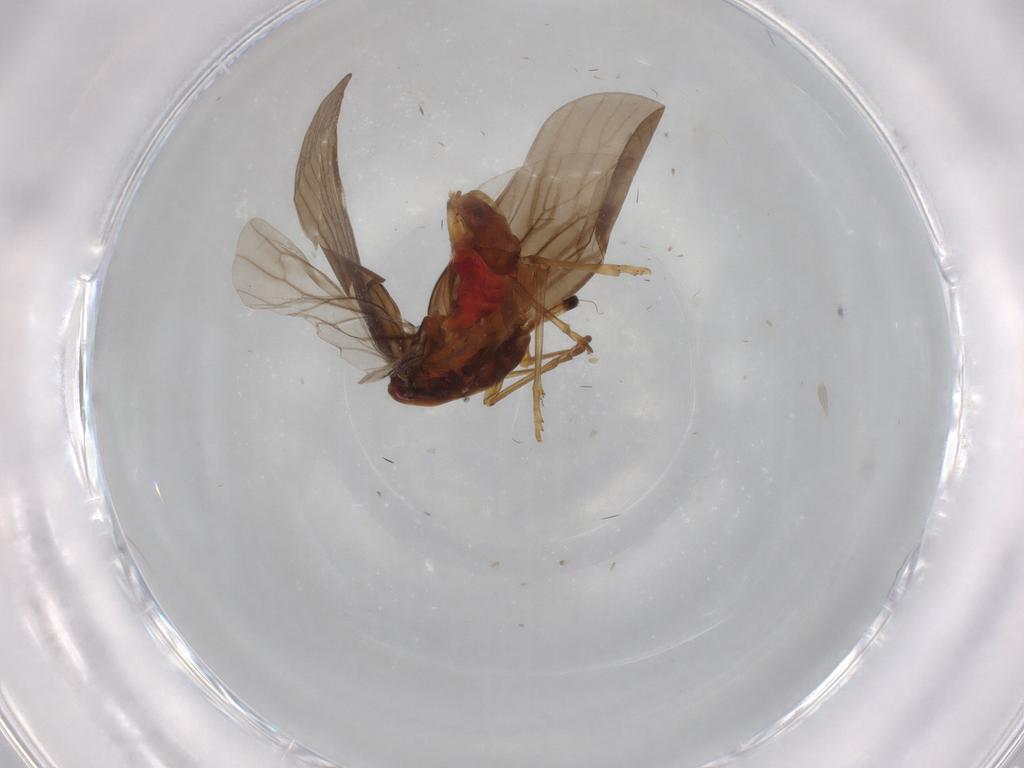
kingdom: Animalia
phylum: Arthropoda
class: Insecta
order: Hemiptera
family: Derbidae
